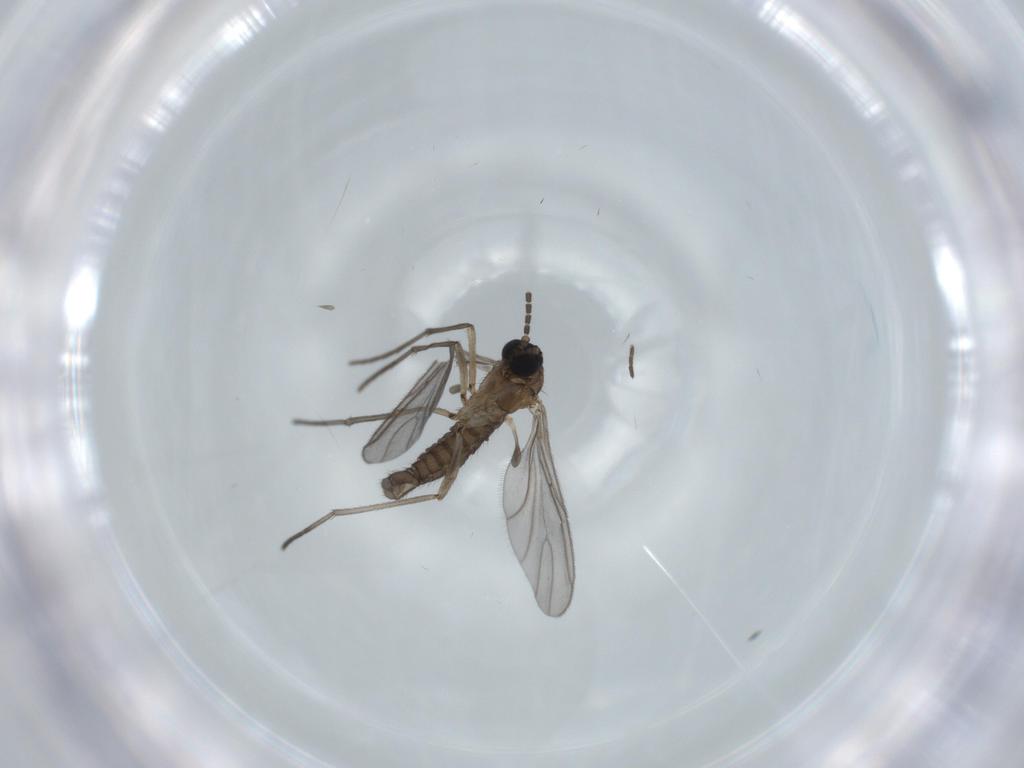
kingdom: Animalia
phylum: Arthropoda
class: Insecta
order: Diptera
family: Sciaridae
